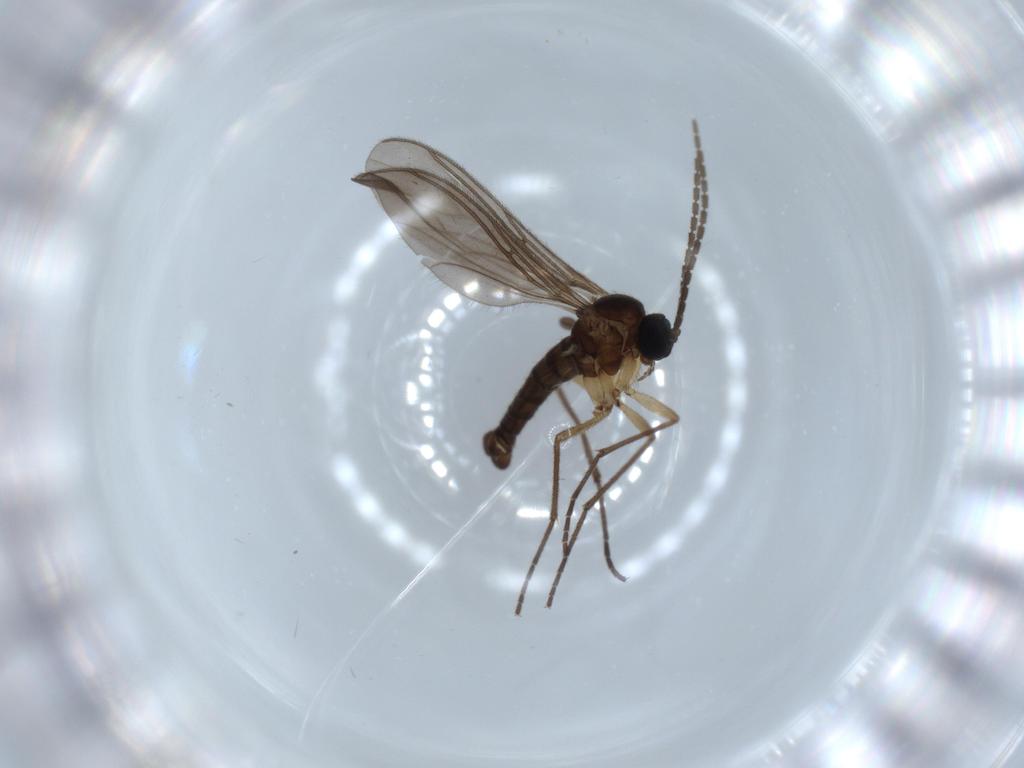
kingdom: Animalia
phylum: Arthropoda
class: Insecta
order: Diptera
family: Sciaridae
